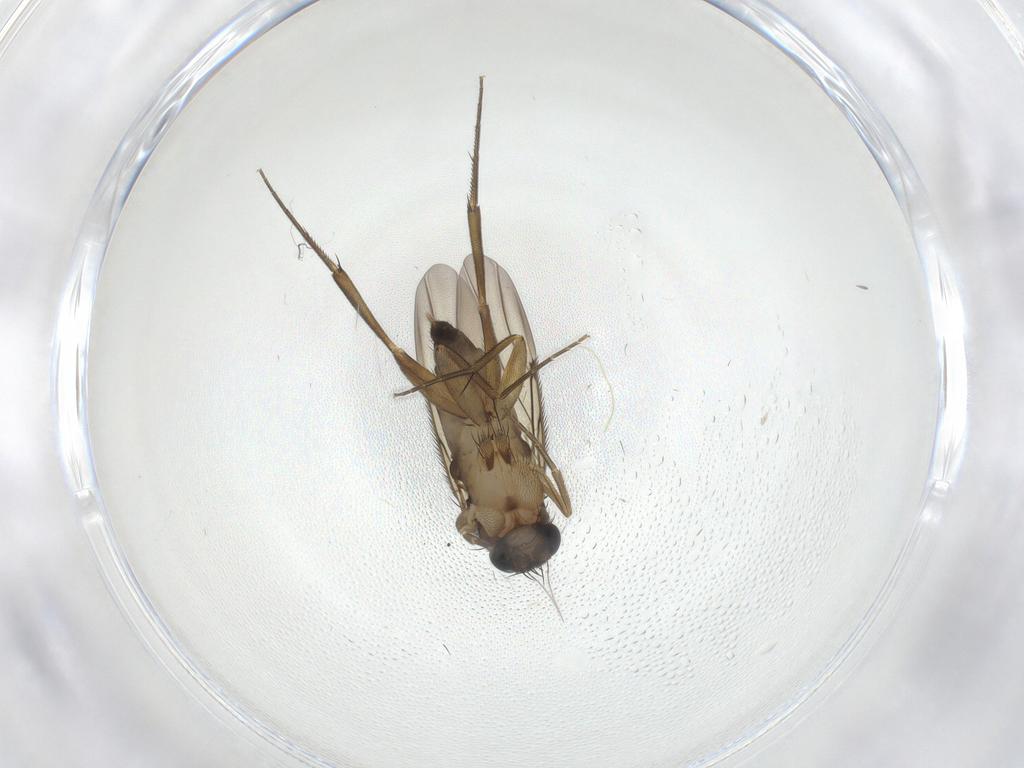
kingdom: Animalia
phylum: Arthropoda
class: Insecta
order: Diptera
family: Phoridae
